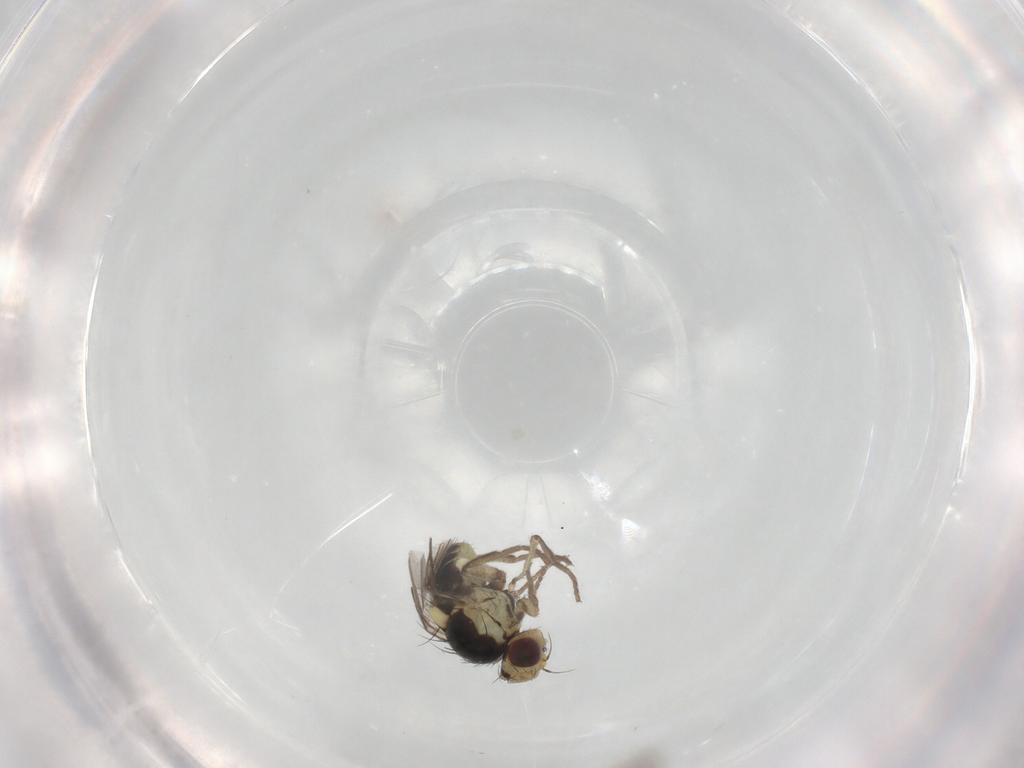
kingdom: Animalia
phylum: Arthropoda
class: Insecta
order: Diptera
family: Agromyzidae
